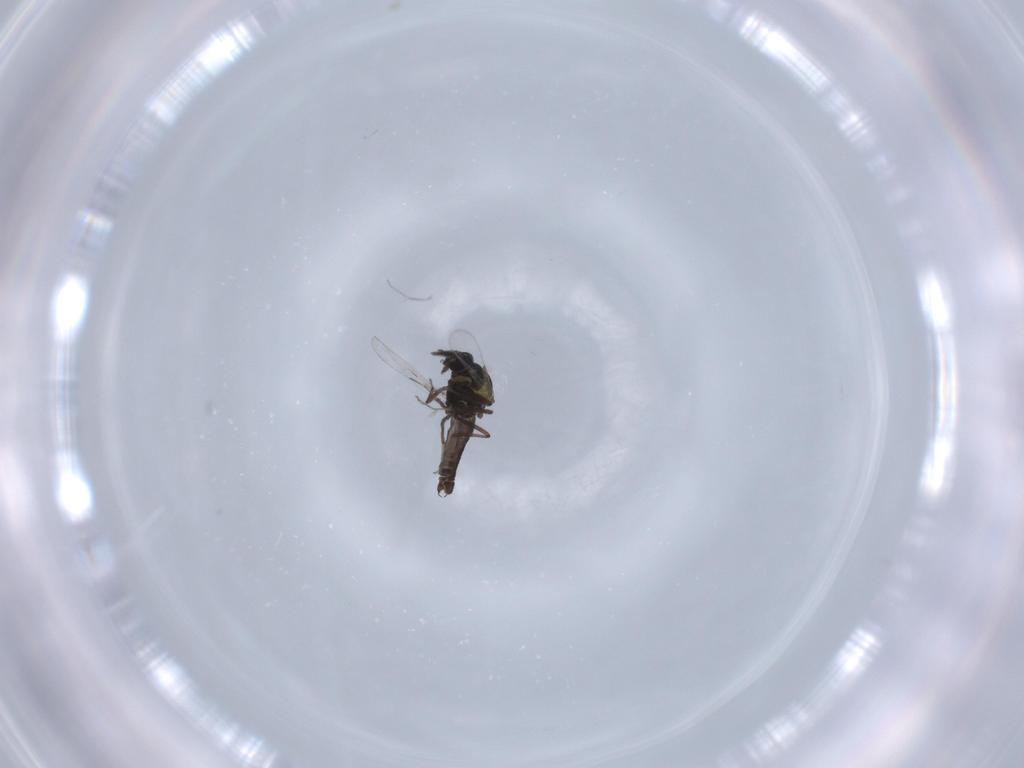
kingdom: Animalia
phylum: Arthropoda
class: Insecta
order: Diptera
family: Ceratopogonidae
